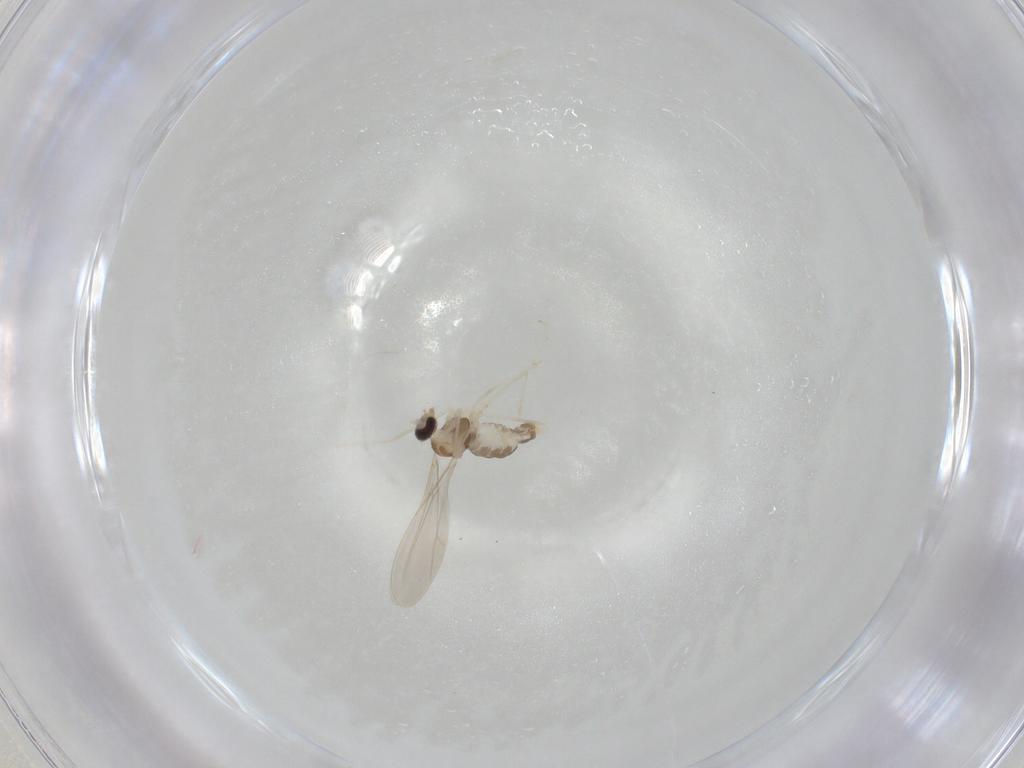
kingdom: Animalia
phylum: Arthropoda
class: Insecta
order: Diptera
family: Cecidomyiidae
